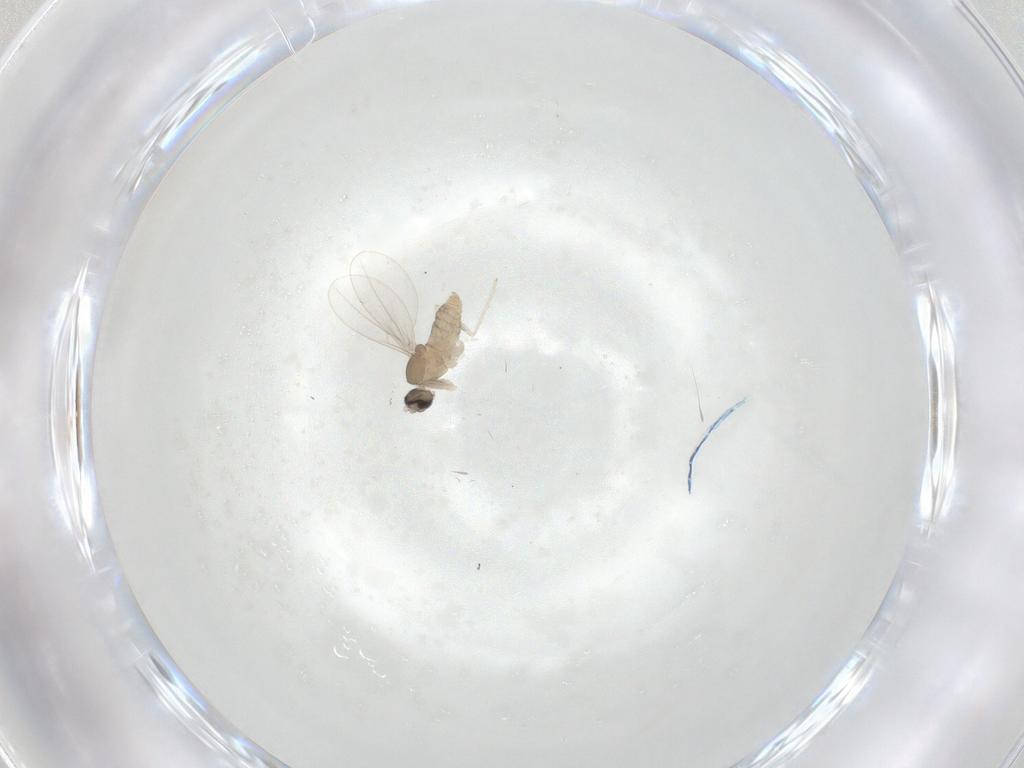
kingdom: Animalia
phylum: Arthropoda
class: Insecta
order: Diptera
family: Cecidomyiidae
